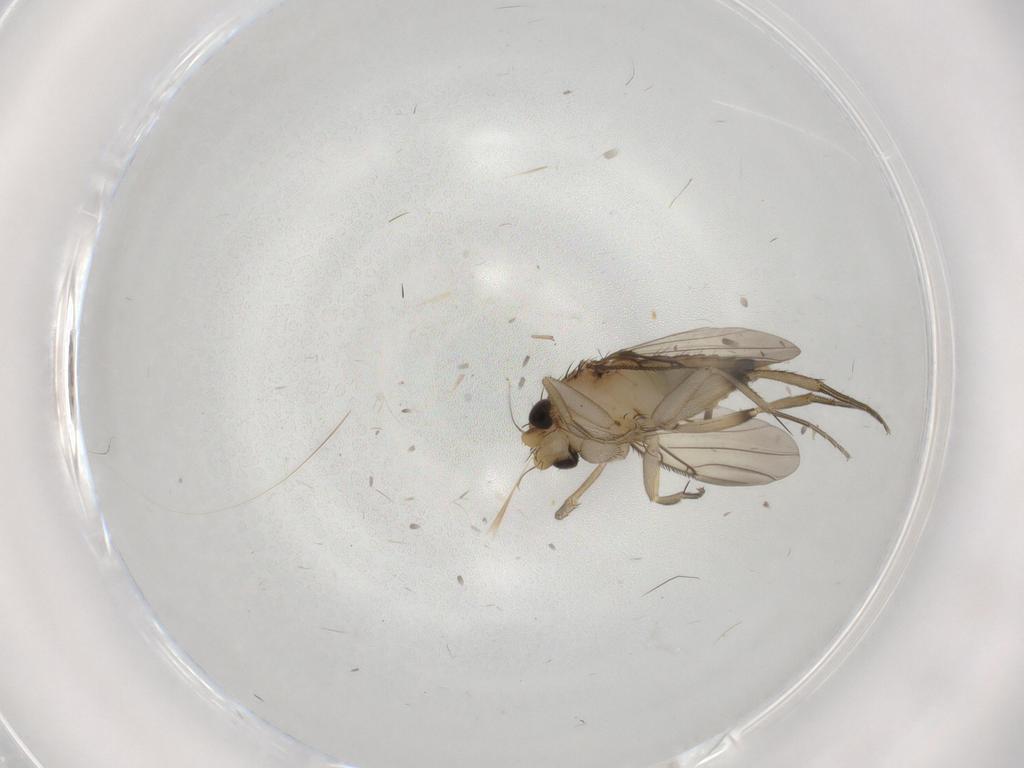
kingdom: Animalia
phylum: Arthropoda
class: Insecta
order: Diptera
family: Phoridae
